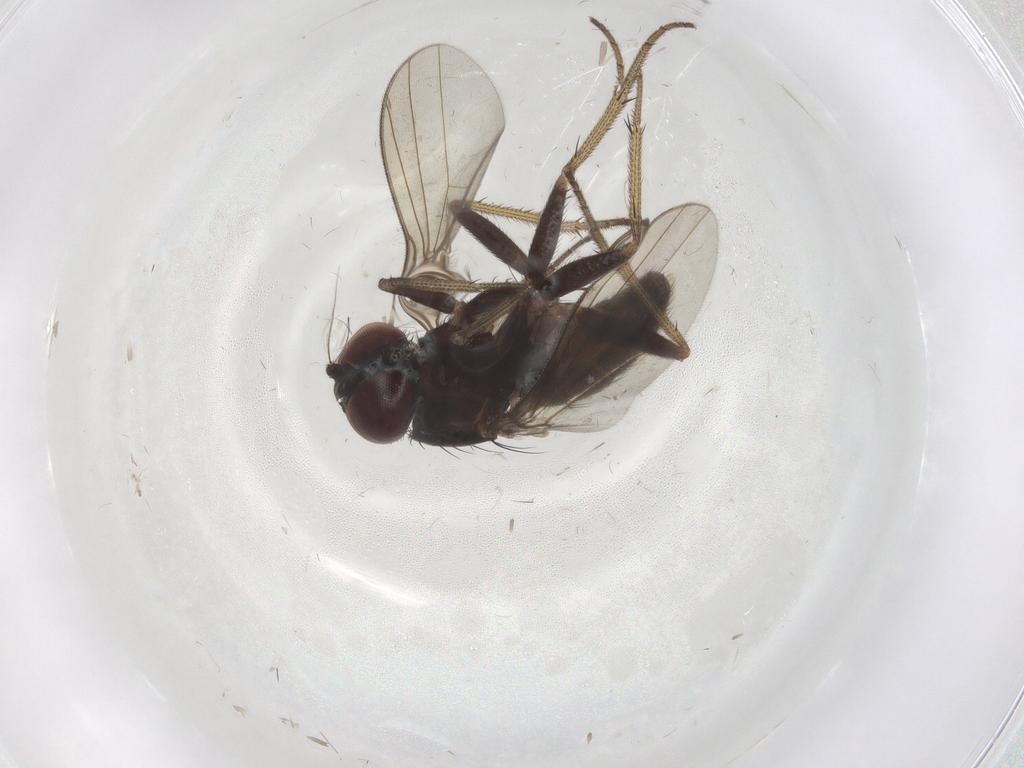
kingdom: Animalia
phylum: Arthropoda
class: Insecta
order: Diptera
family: Dolichopodidae
